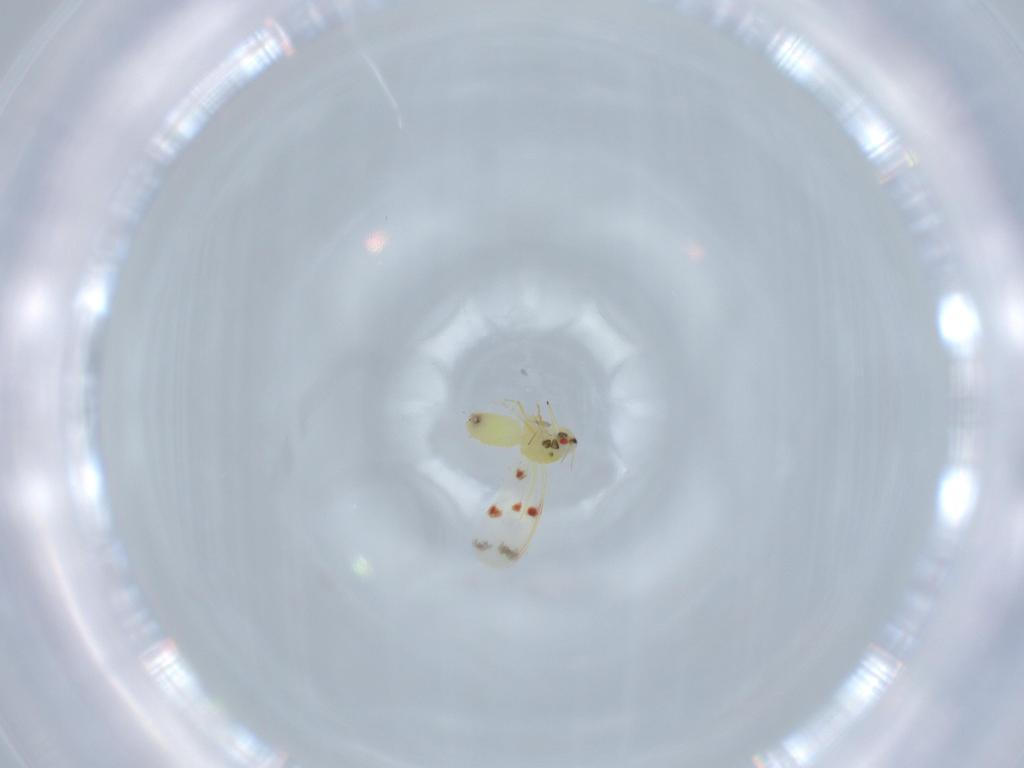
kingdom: Animalia
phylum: Arthropoda
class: Insecta
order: Hemiptera
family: Aleyrodidae
